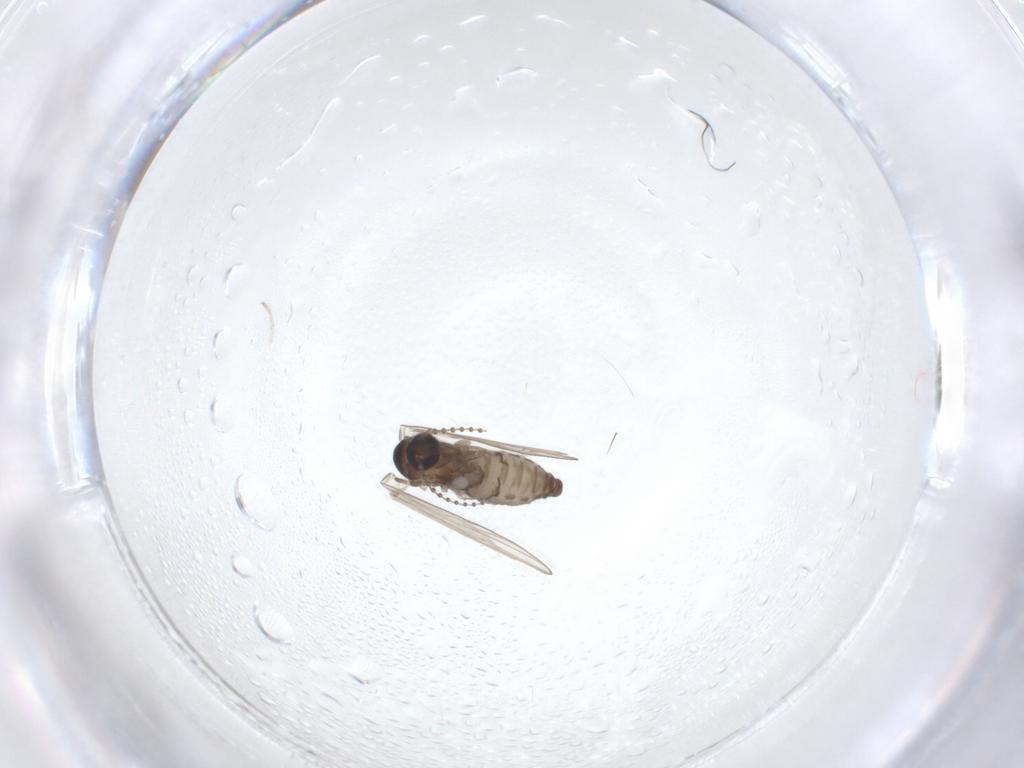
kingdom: Animalia
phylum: Arthropoda
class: Insecta
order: Diptera
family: Psychodidae
